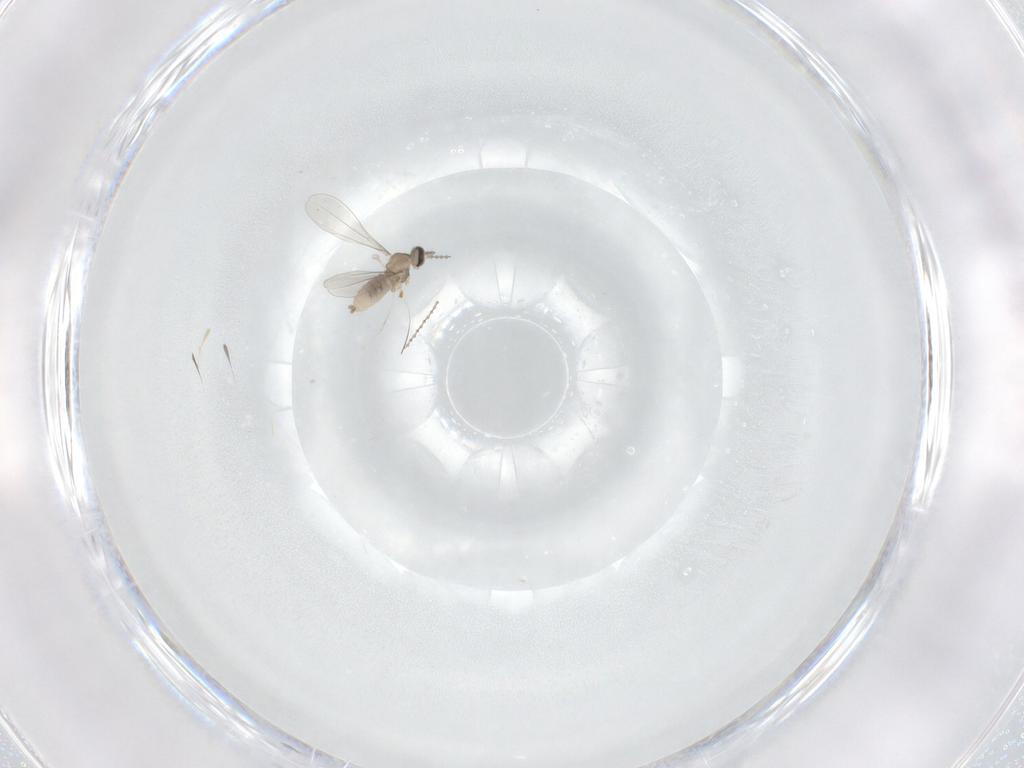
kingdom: Animalia
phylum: Arthropoda
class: Insecta
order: Diptera
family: Cecidomyiidae
